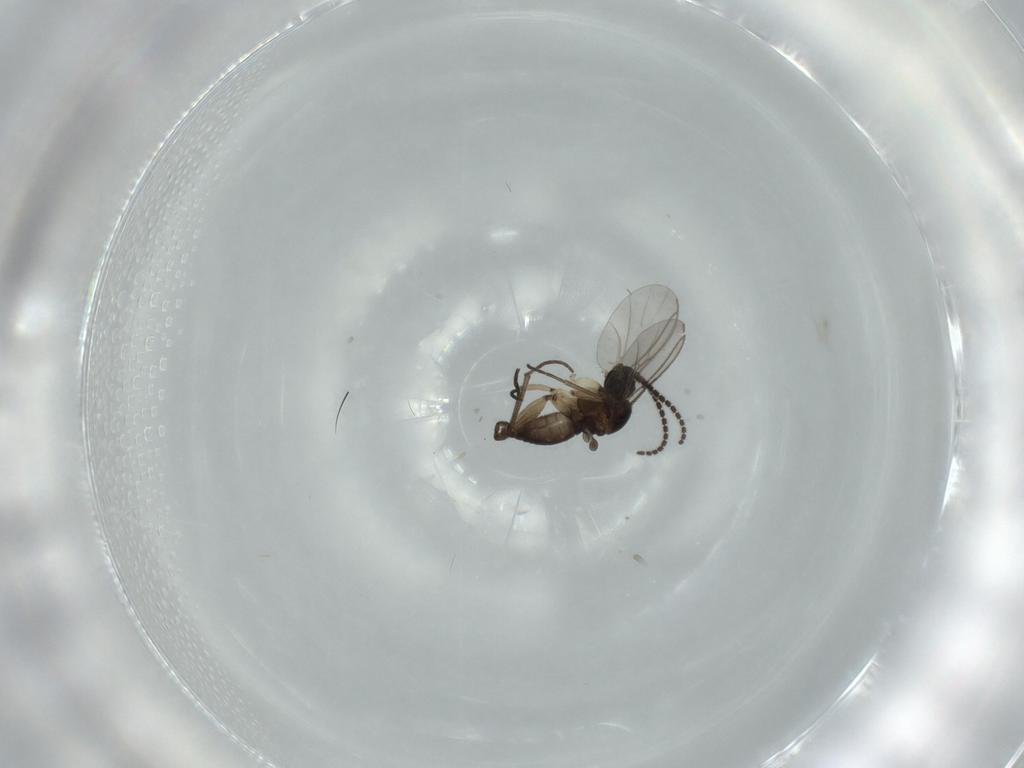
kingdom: Animalia
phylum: Arthropoda
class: Insecta
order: Diptera
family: Sciaridae
